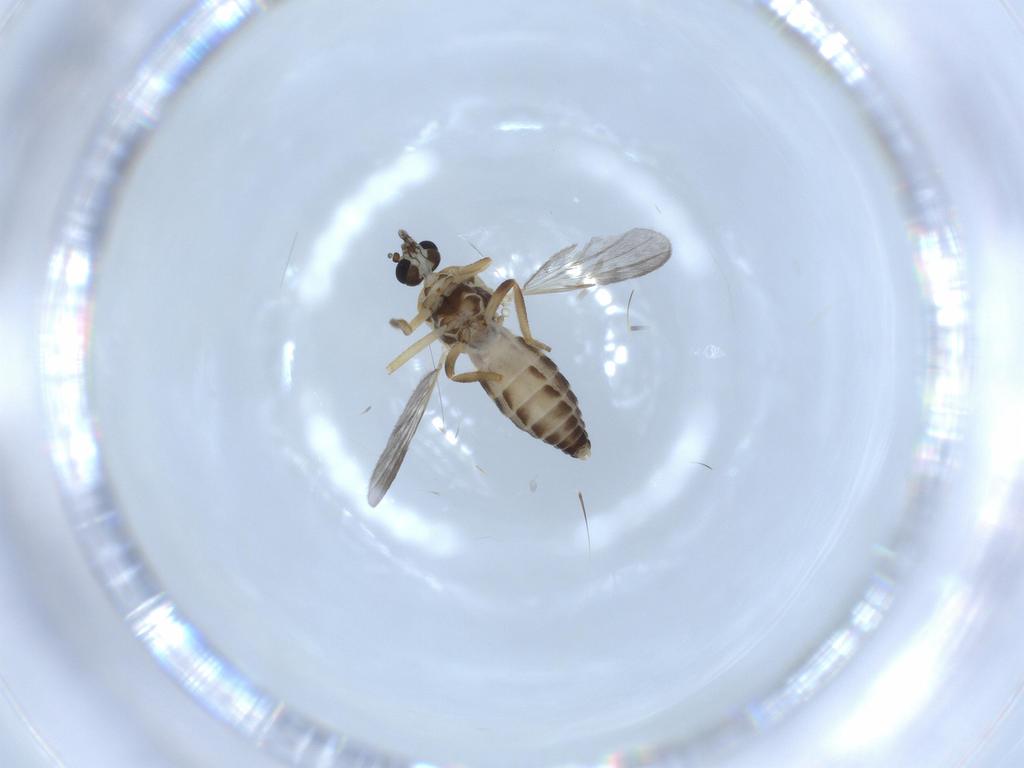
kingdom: Animalia
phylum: Arthropoda
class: Insecta
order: Diptera
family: Ceratopogonidae
